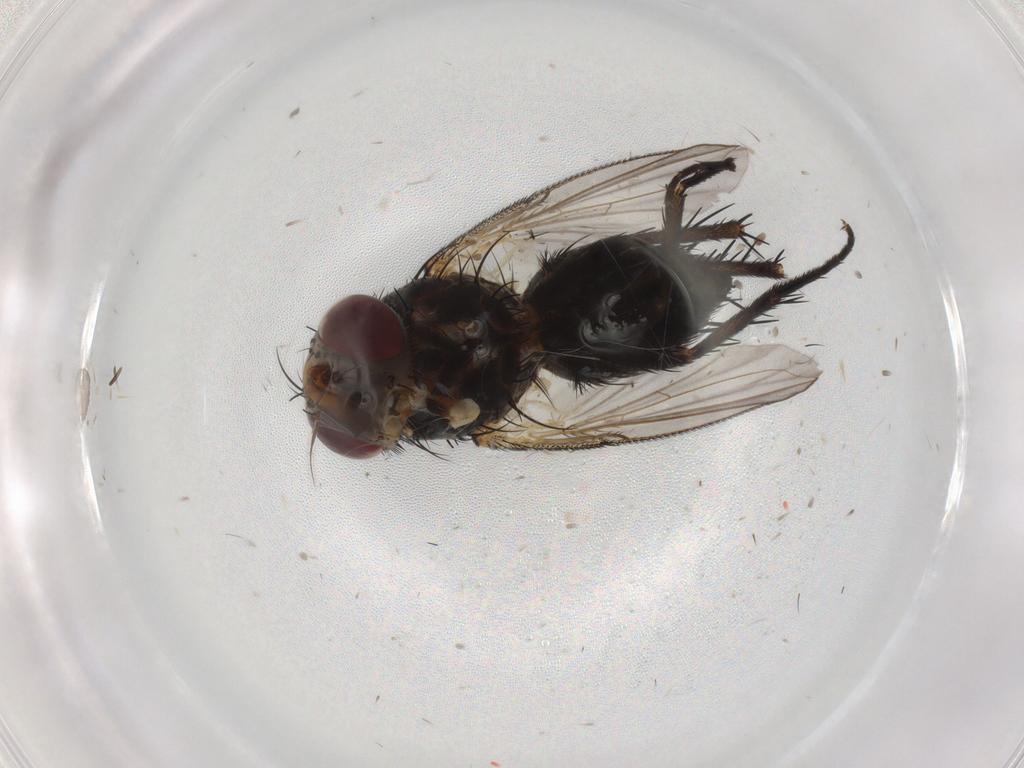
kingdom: Animalia
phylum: Arthropoda
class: Insecta
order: Diptera
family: Tachinidae
